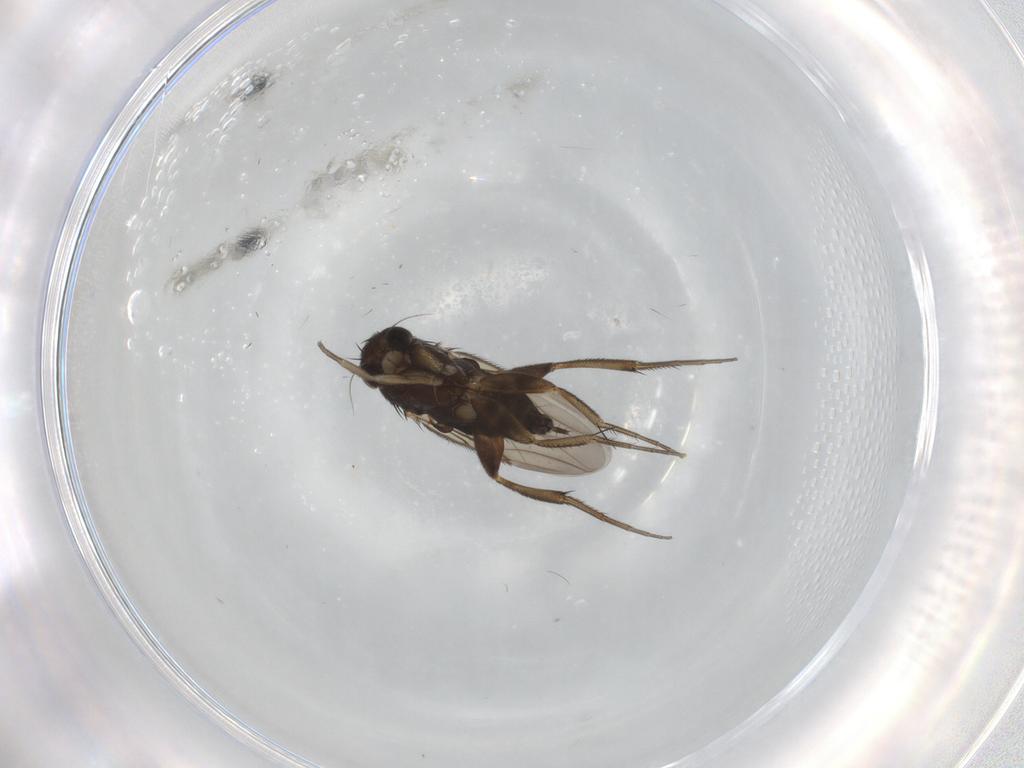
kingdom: Animalia
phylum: Arthropoda
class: Insecta
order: Diptera
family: Phoridae
